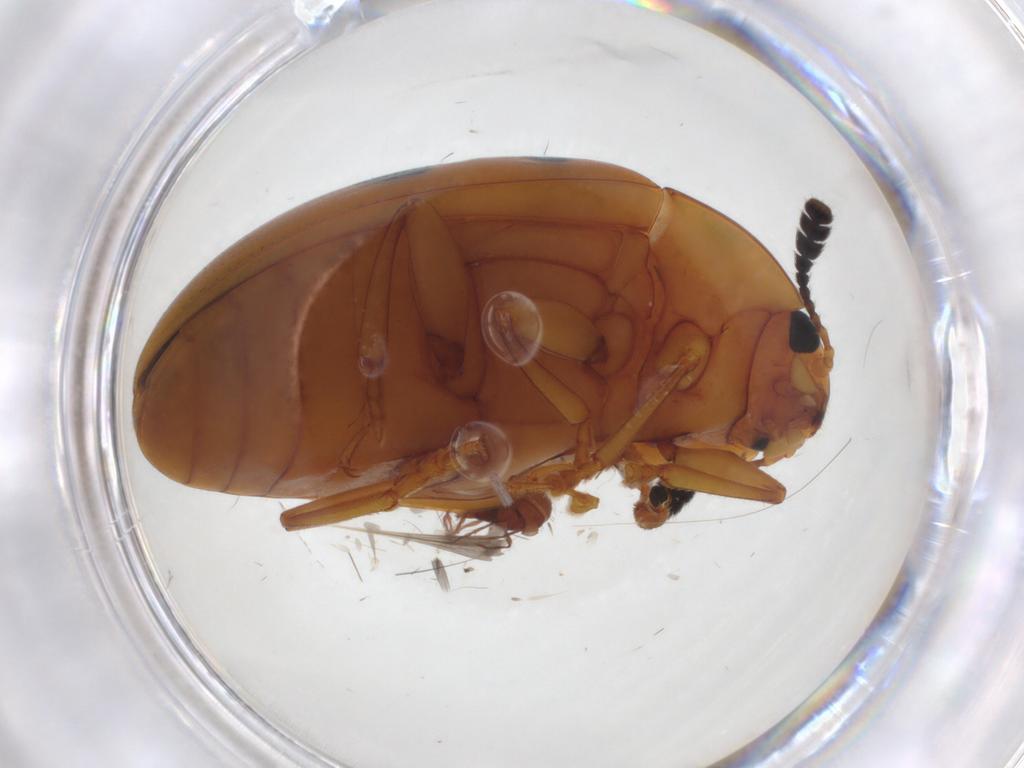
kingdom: Animalia
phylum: Arthropoda
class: Insecta
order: Coleoptera
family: Erotylidae
